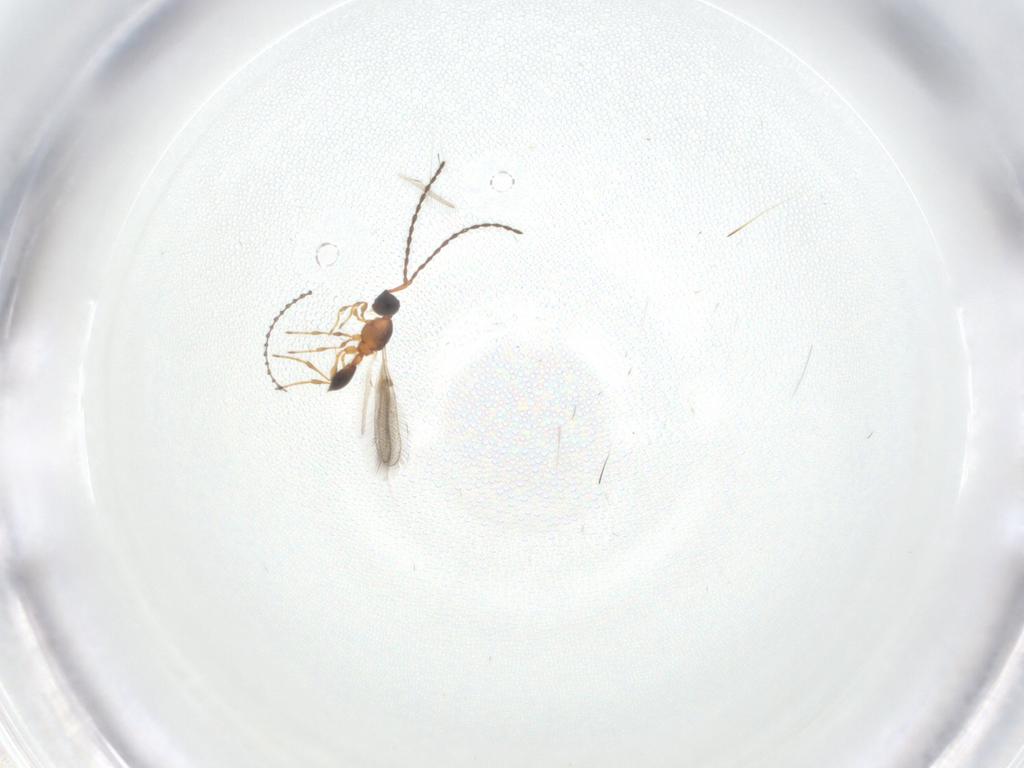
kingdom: Animalia
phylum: Arthropoda
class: Insecta
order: Hymenoptera
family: Diapriidae
